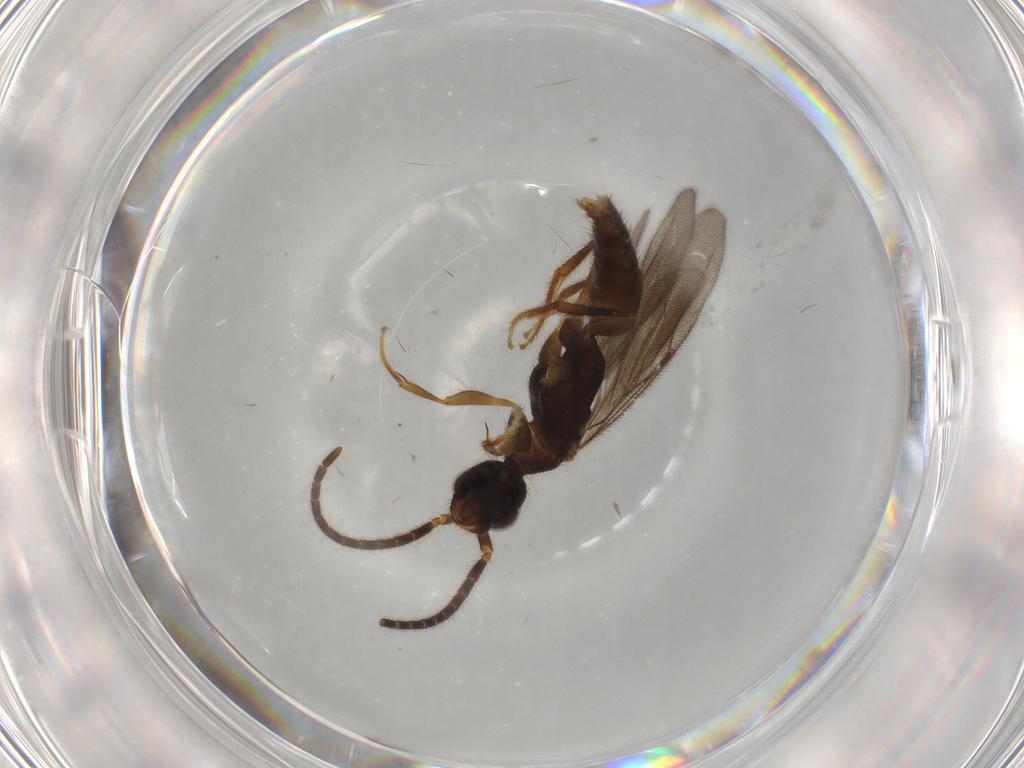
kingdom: Animalia
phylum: Arthropoda
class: Insecta
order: Hymenoptera
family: Bethylidae
